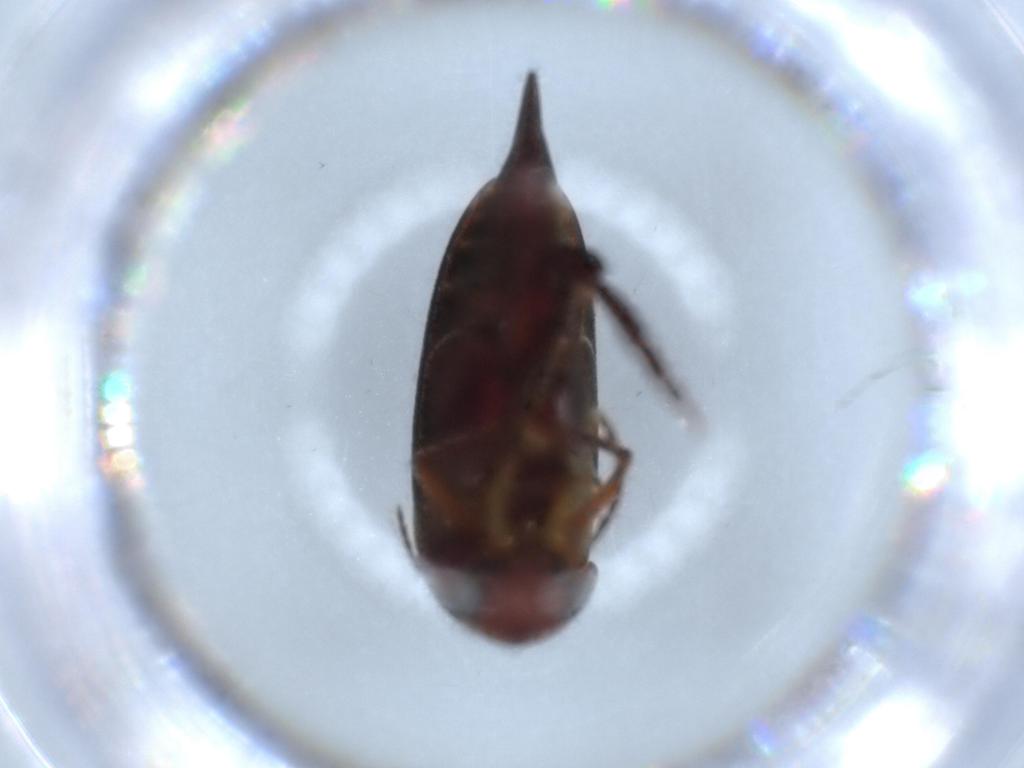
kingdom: Animalia
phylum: Arthropoda
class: Insecta
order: Coleoptera
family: Mordellidae
